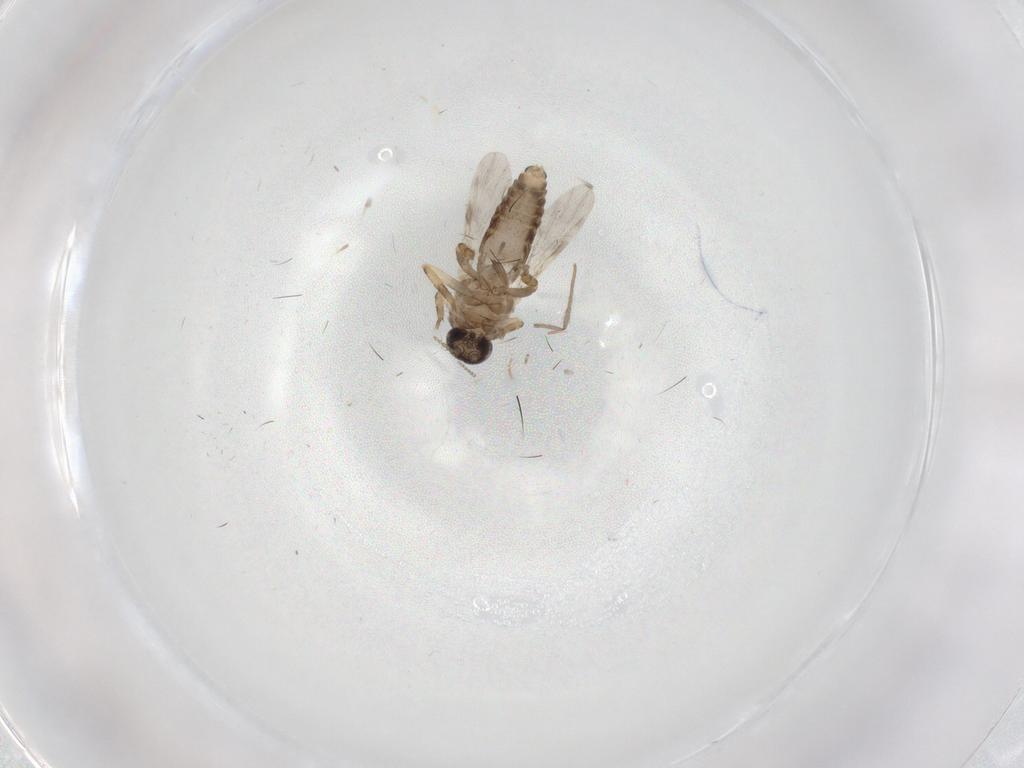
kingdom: Animalia
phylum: Arthropoda
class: Insecta
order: Diptera
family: Ceratopogonidae
